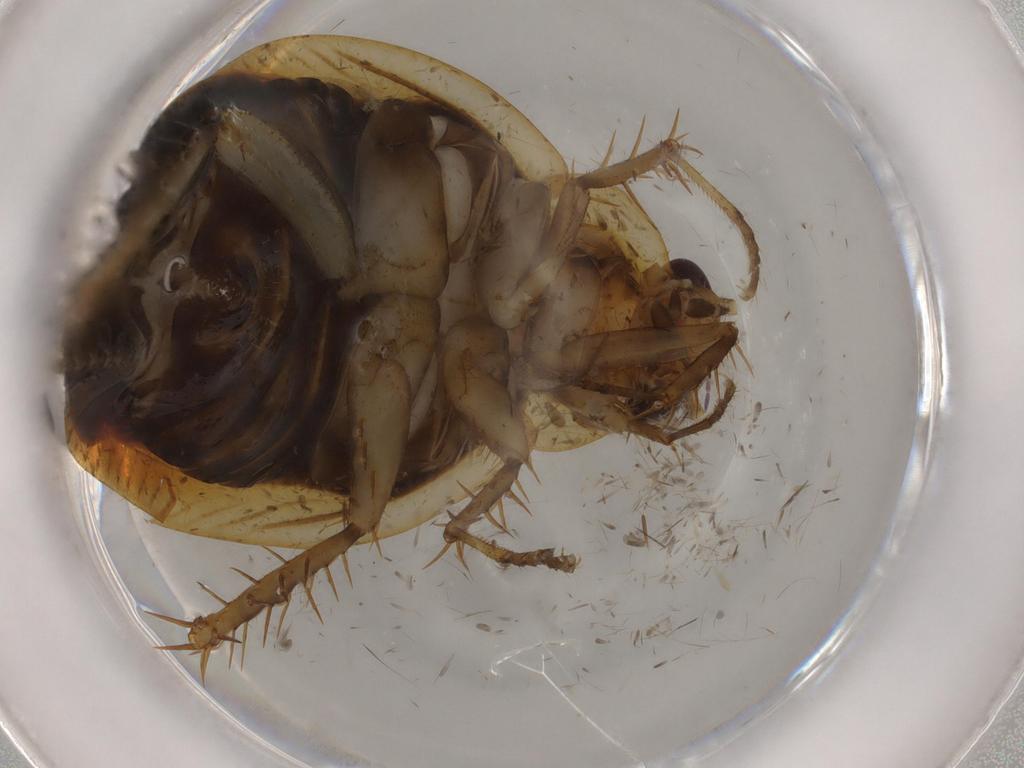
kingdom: Animalia
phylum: Arthropoda
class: Insecta
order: Blattodea
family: Ectobiidae
